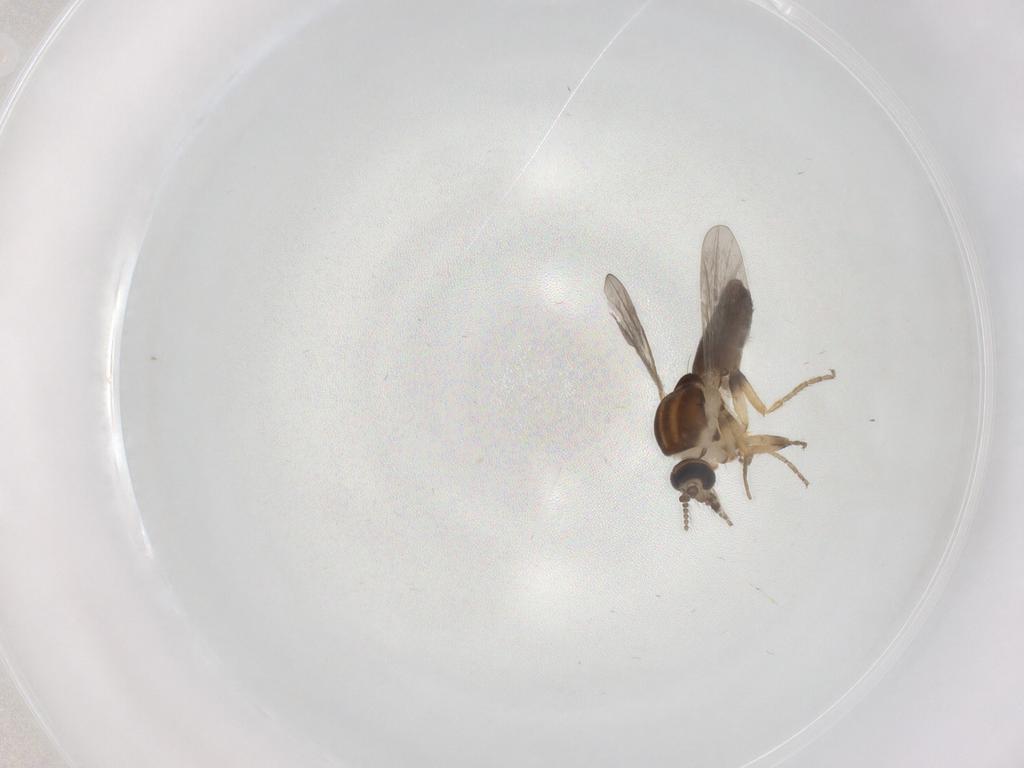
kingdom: Animalia
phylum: Arthropoda
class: Insecta
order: Diptera
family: Ceratopogonidae
